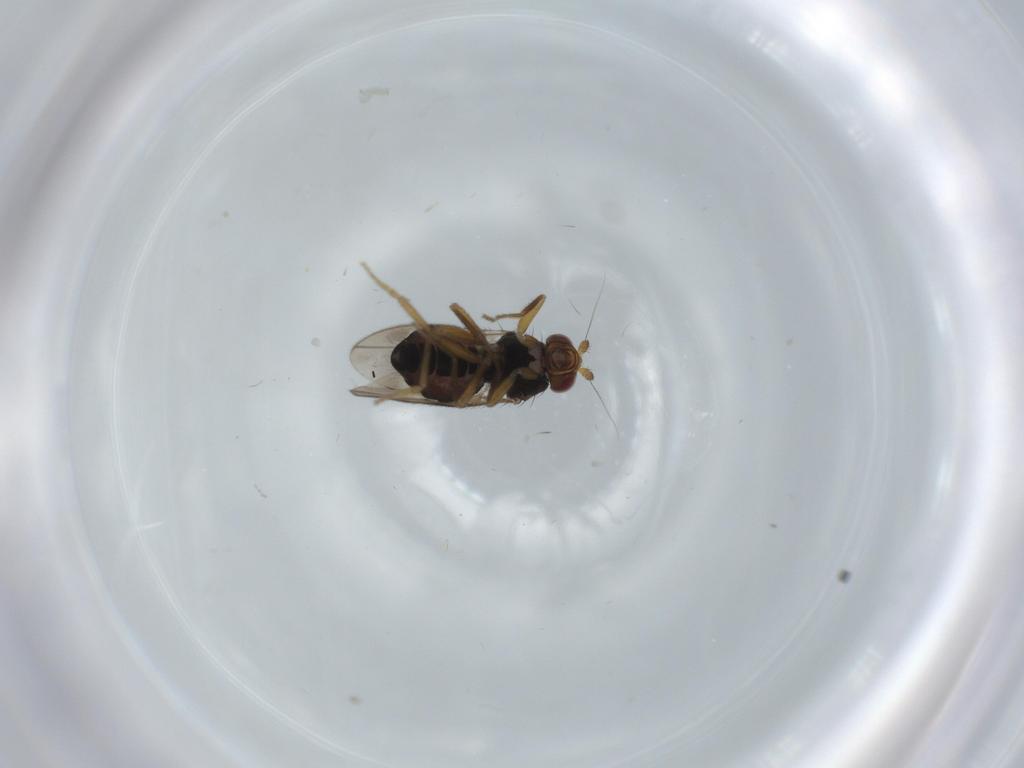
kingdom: Animalia
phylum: Arthropoda
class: Insecta
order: Diptera
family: Sphaeroceridae
